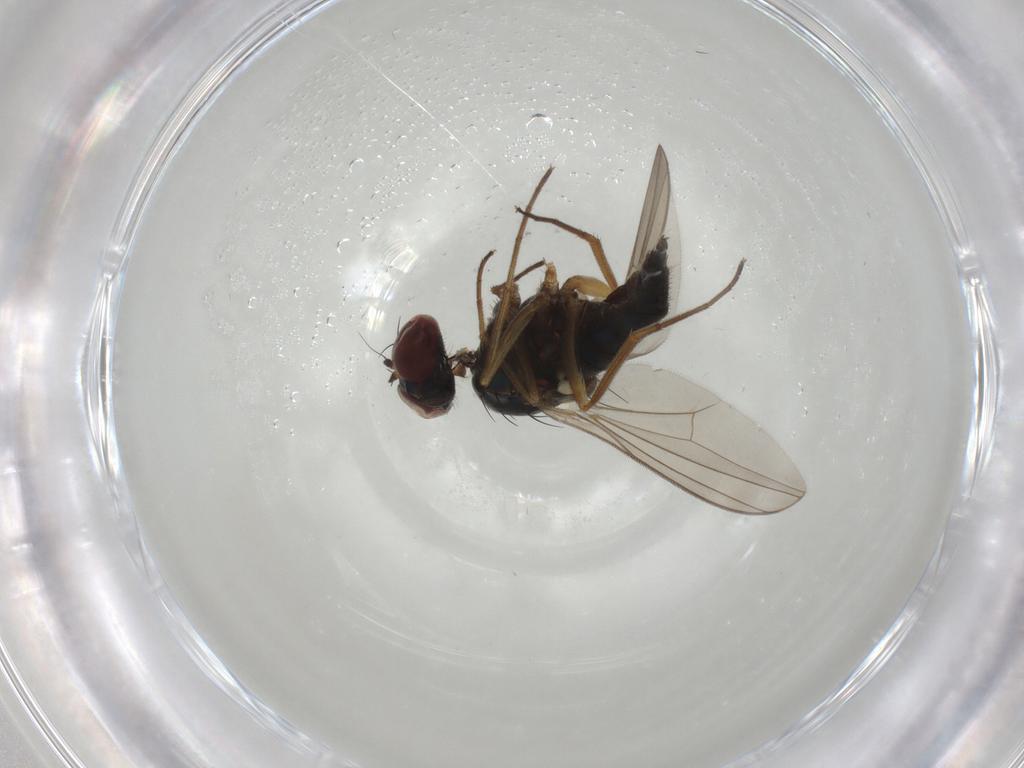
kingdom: Animalia
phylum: Arthropoda
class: Insecta
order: Diptera
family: Dolichopodidae
